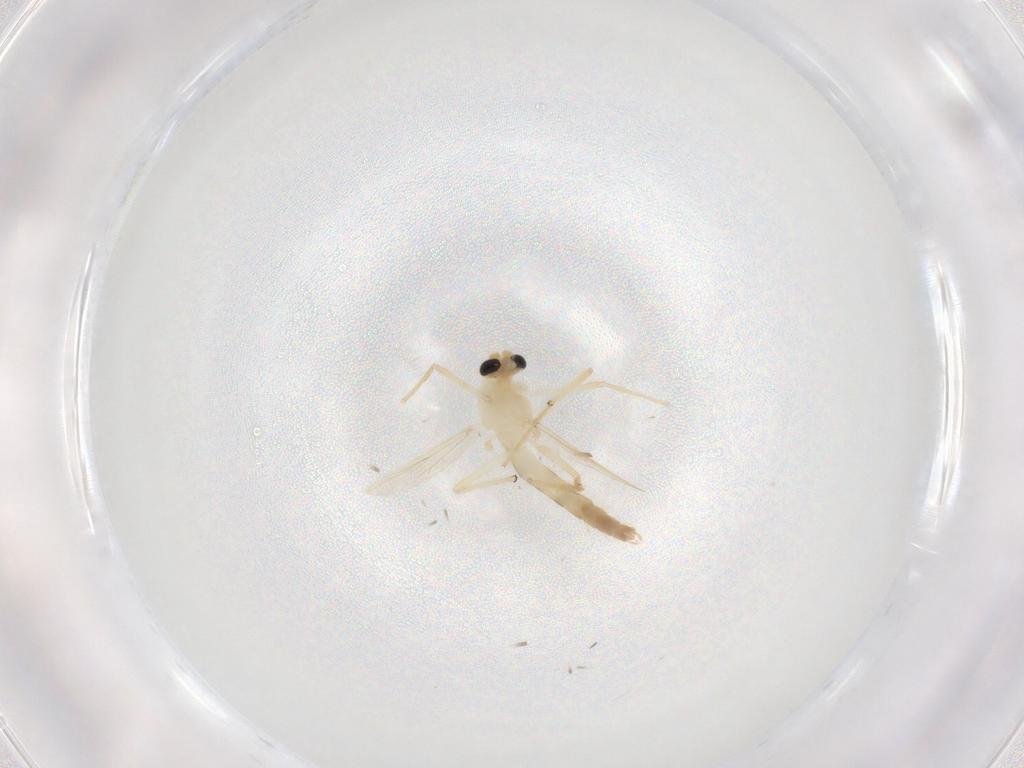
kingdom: Animalia
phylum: Arthropoda
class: Insecta
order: Diptera
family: Chironomidae
